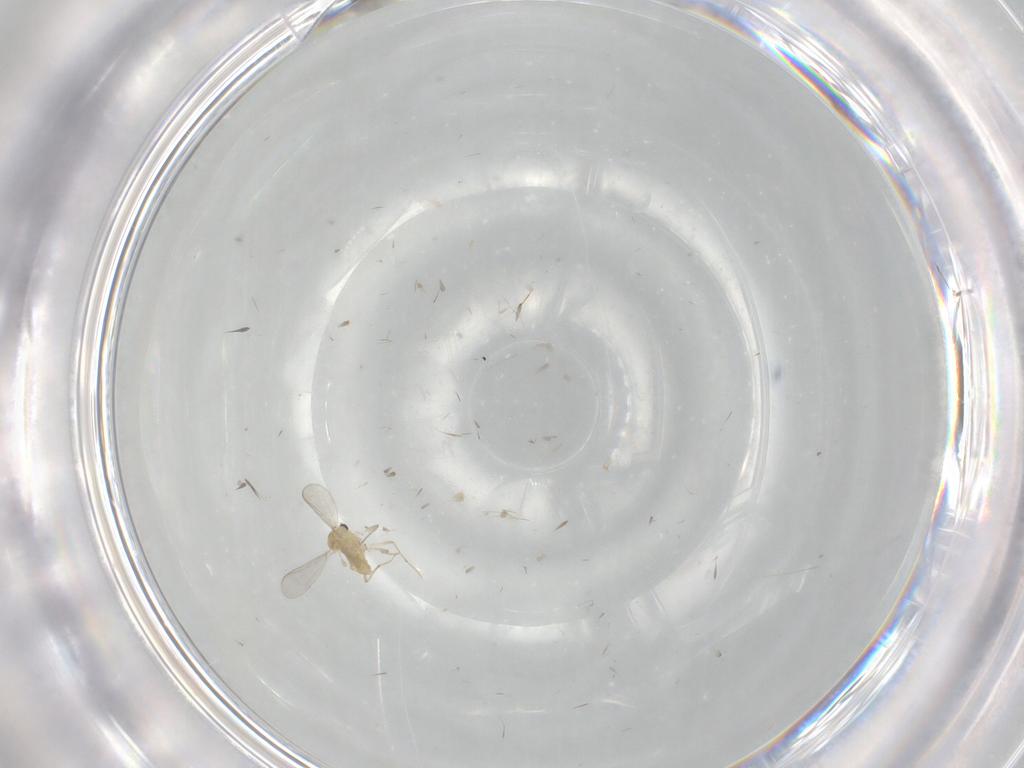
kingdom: Animalia
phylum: Arthropoda
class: Insecta
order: Diptera
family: Chironomidae
